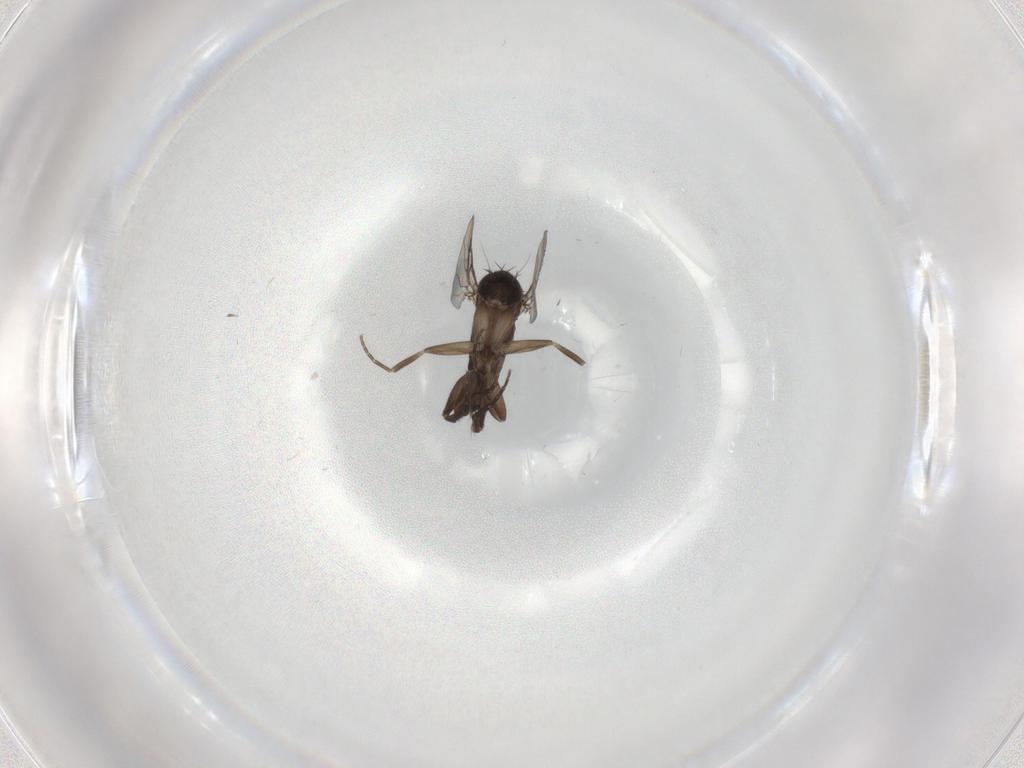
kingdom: Animalia
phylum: Arthropoda
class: Insecta
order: Diptera
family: Phoridae
